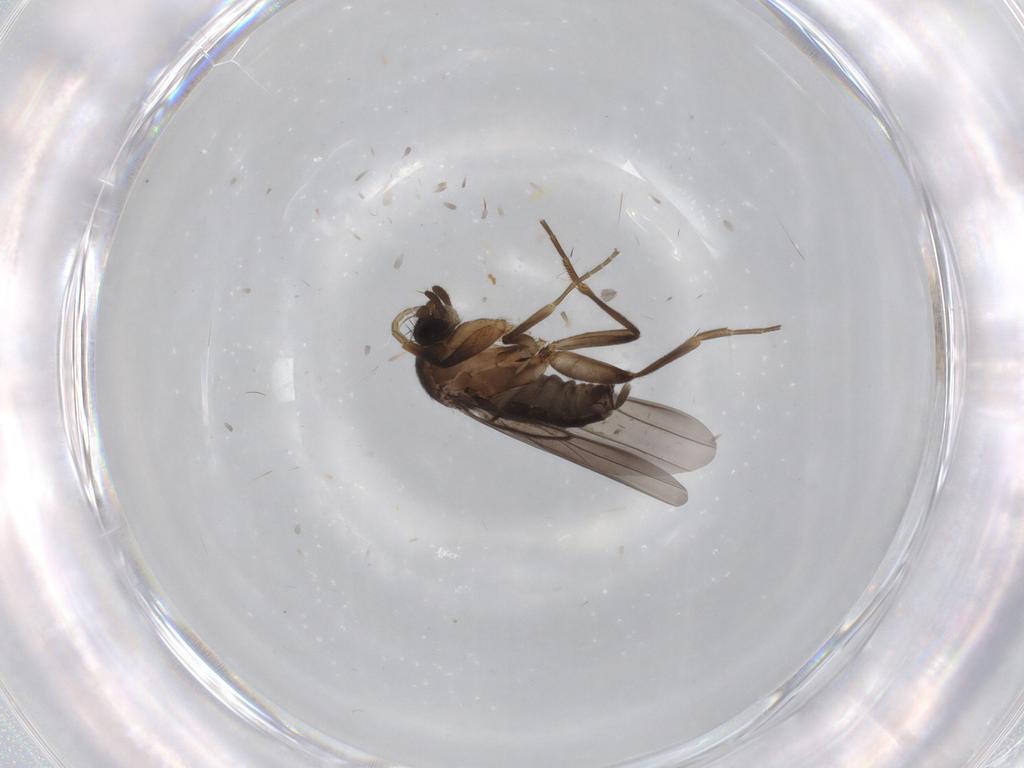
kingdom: Animalia
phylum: Arthropoda
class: Insecta
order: Diptera
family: Phoridae
